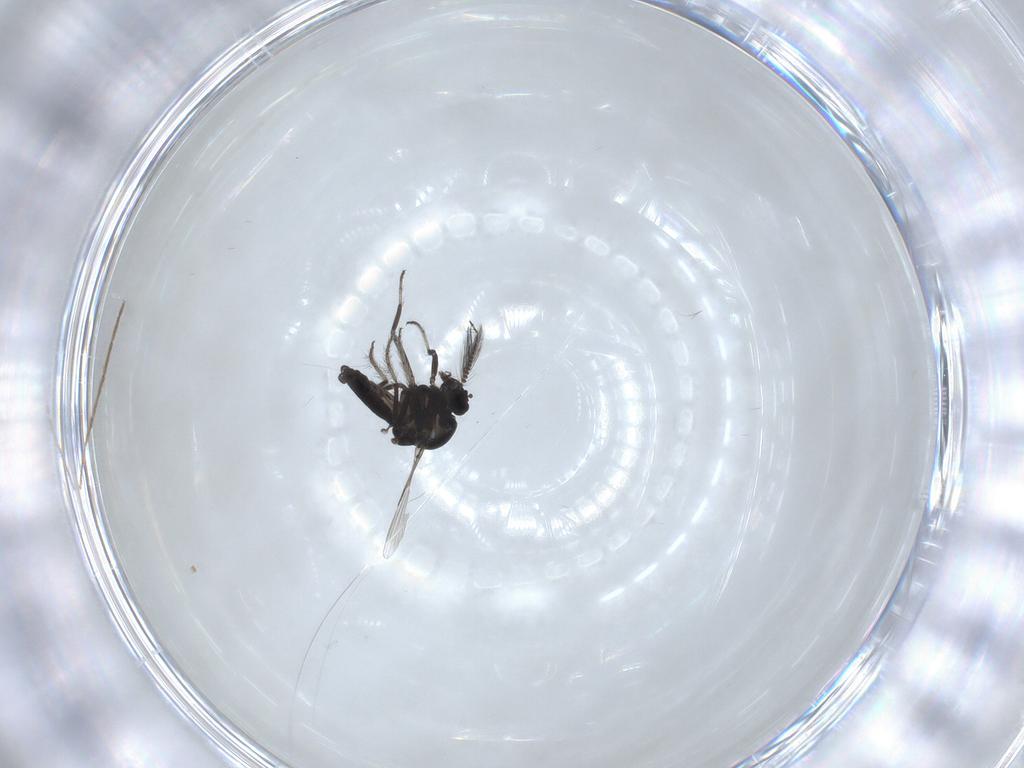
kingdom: Animalia
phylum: Arthropoda
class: Insecta
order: Diptera
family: Ceratopogonidae
